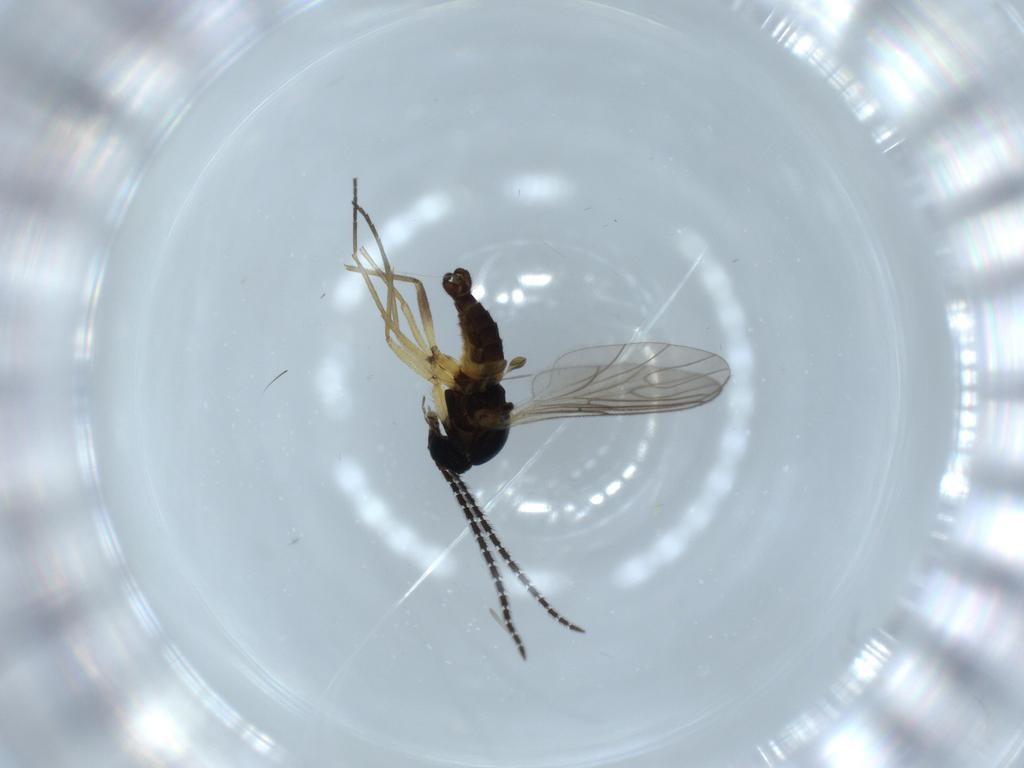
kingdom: Animalia
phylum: Arthropoda
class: Insecta
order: Diptera
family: Sciaridae
